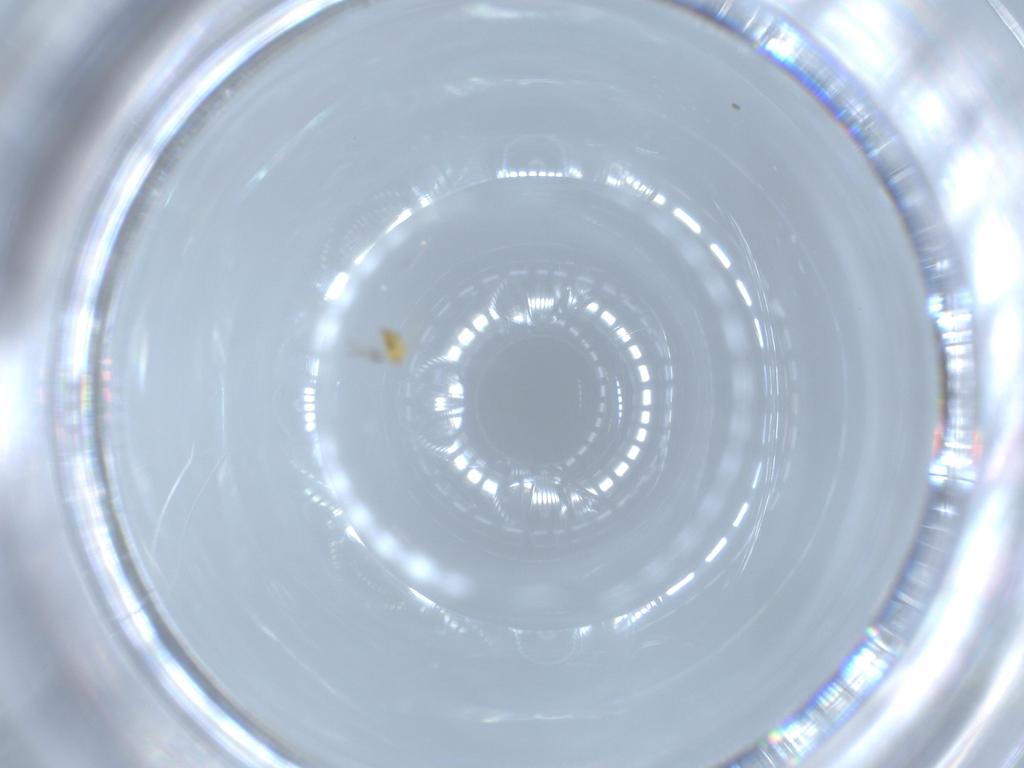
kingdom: Animalia
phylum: Arthropoda
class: Insecta
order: Hymenoptera
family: Trichogrammatidae
